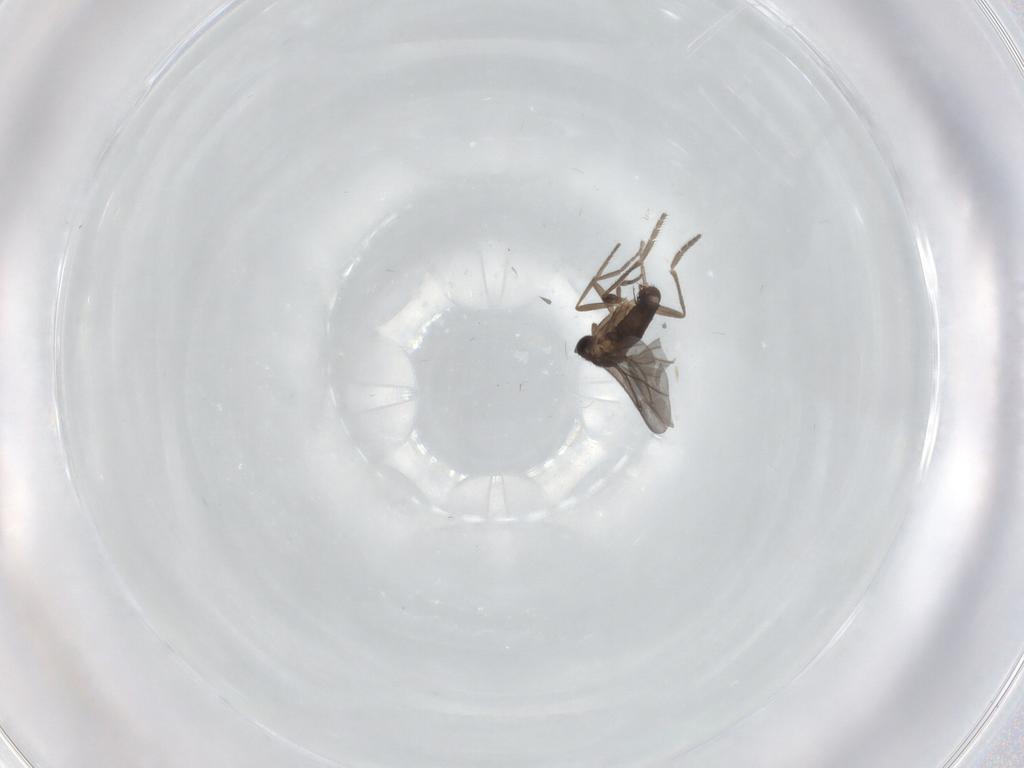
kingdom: Animalia
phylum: Arthropoda
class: Insecta
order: Diptera
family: Phoridae
